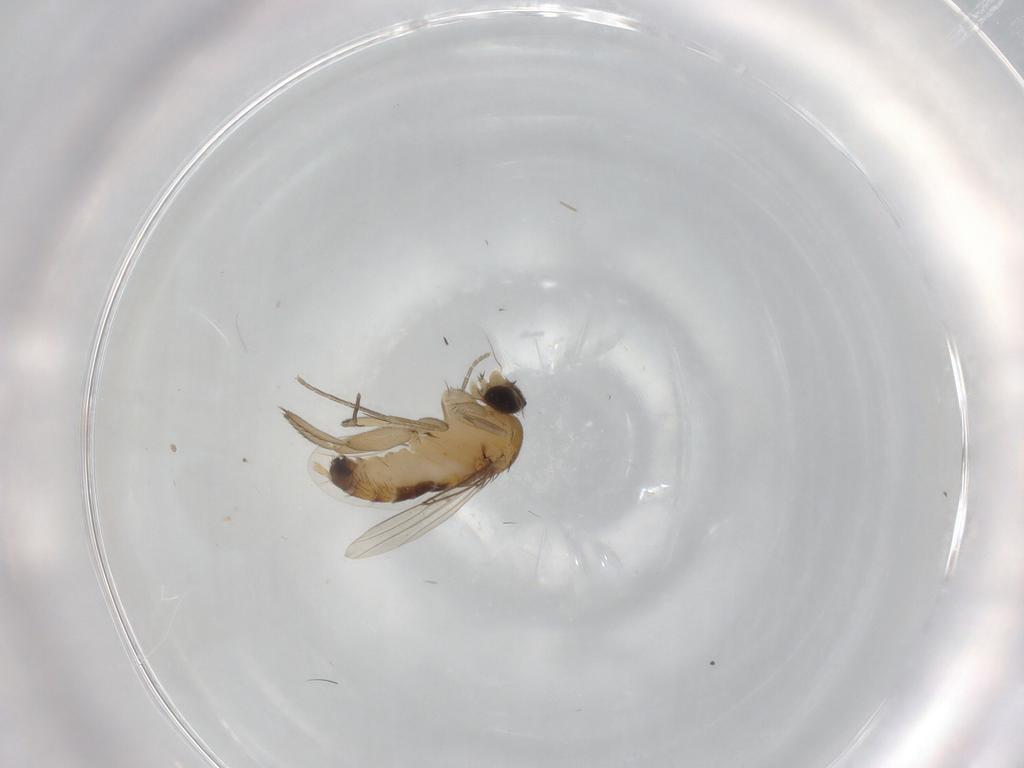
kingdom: Animalia
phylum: Arthropoda
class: Insecta
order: Diptera
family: Phoridae
